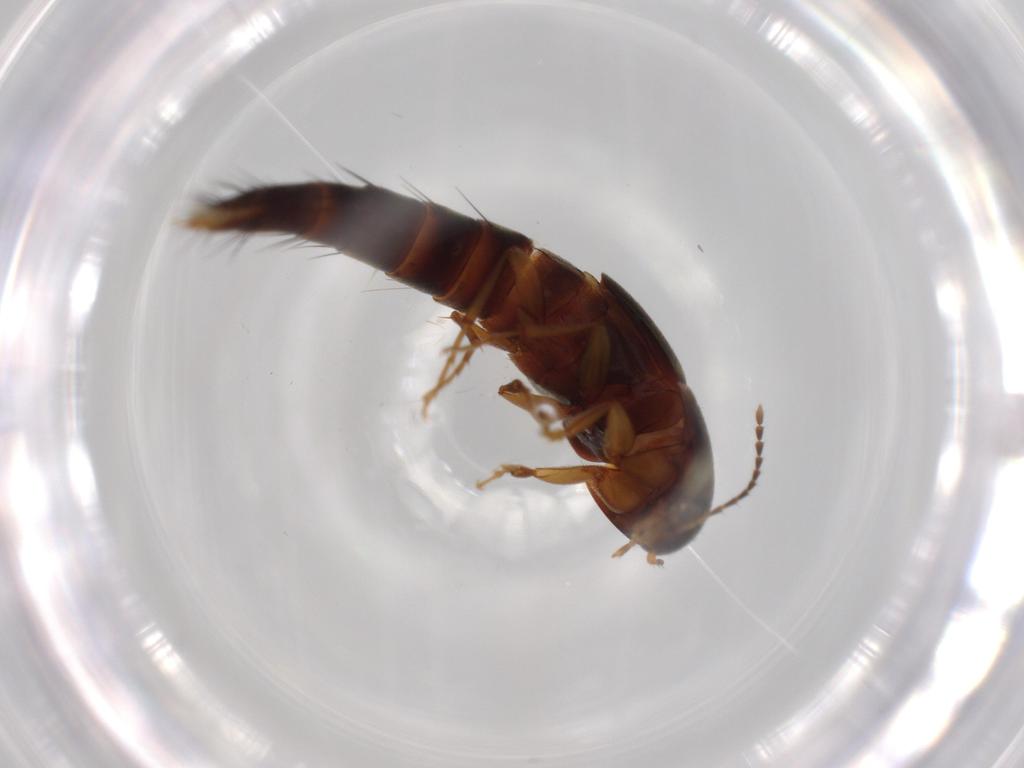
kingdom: Animalia
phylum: Arthropoda
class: Insecta
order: Coleoptera
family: Staphylinidae
